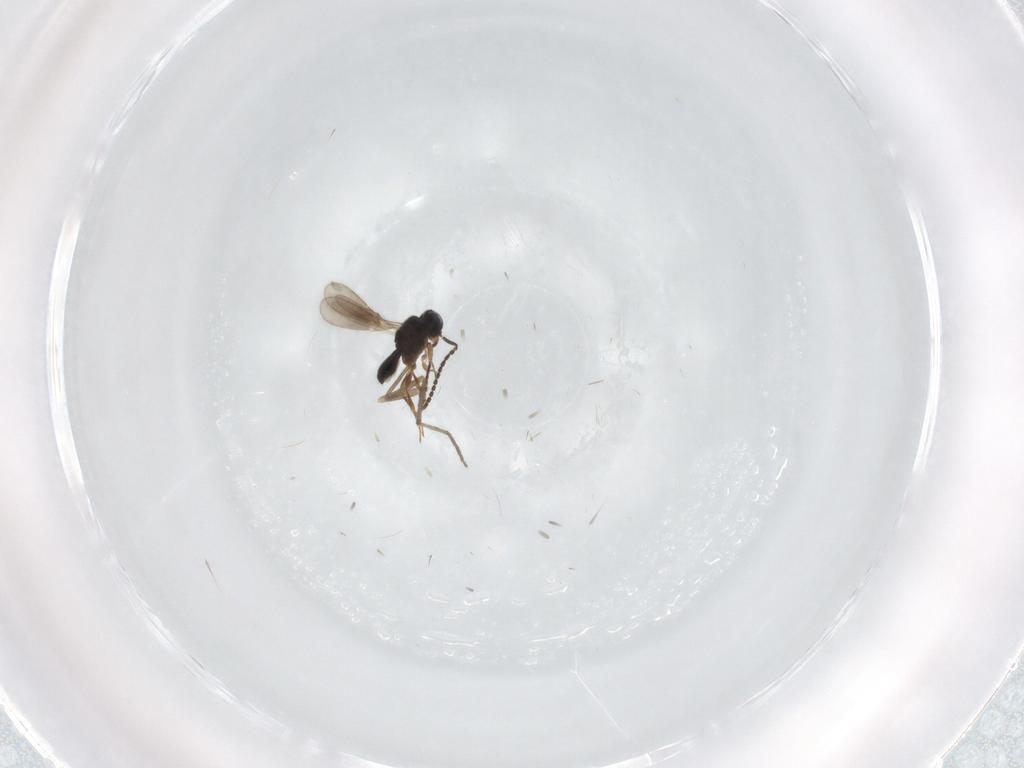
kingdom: Animalia
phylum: Arthropoda
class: Insecta
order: Hymenoptera
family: Scelionidae
